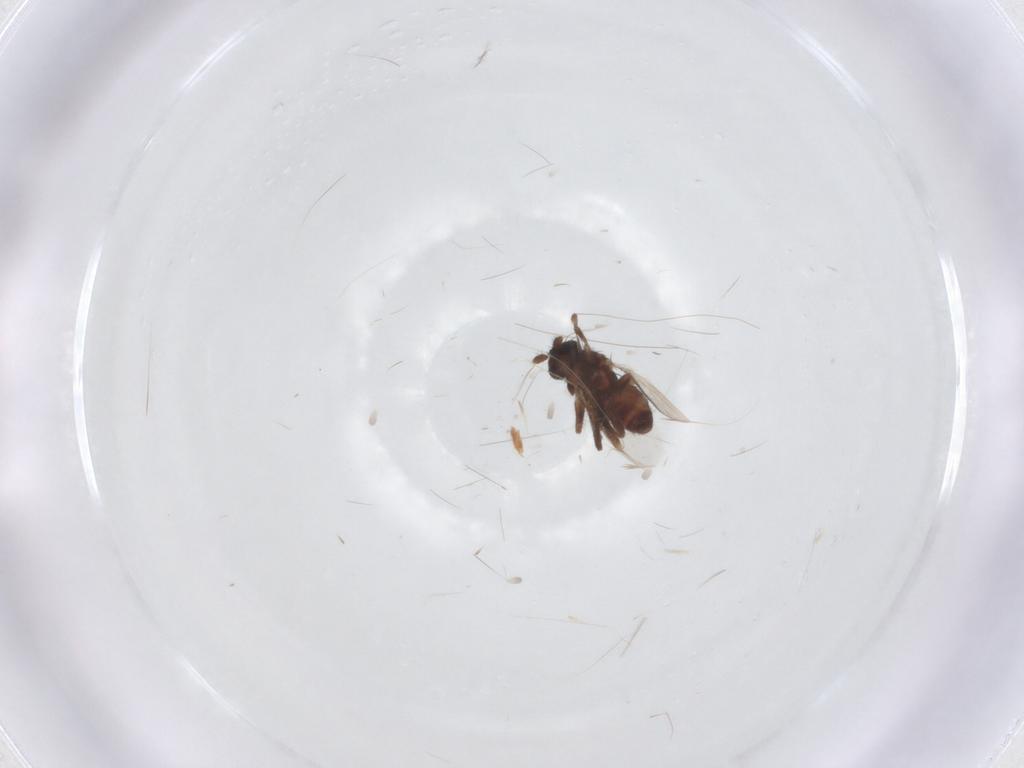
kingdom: Animalia
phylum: Arthropoda
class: Insecta
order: Diptera
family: Sphaeroceridae
